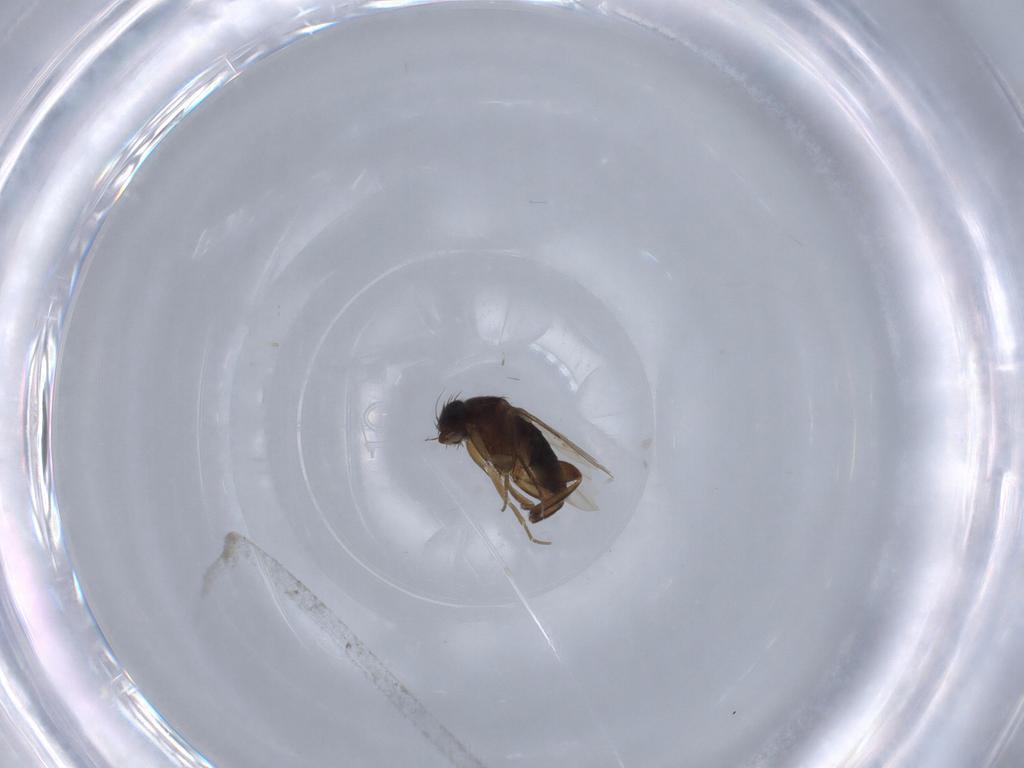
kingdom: Animalia
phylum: Arthropoda
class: Insecta
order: Diptera
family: Phoridae
